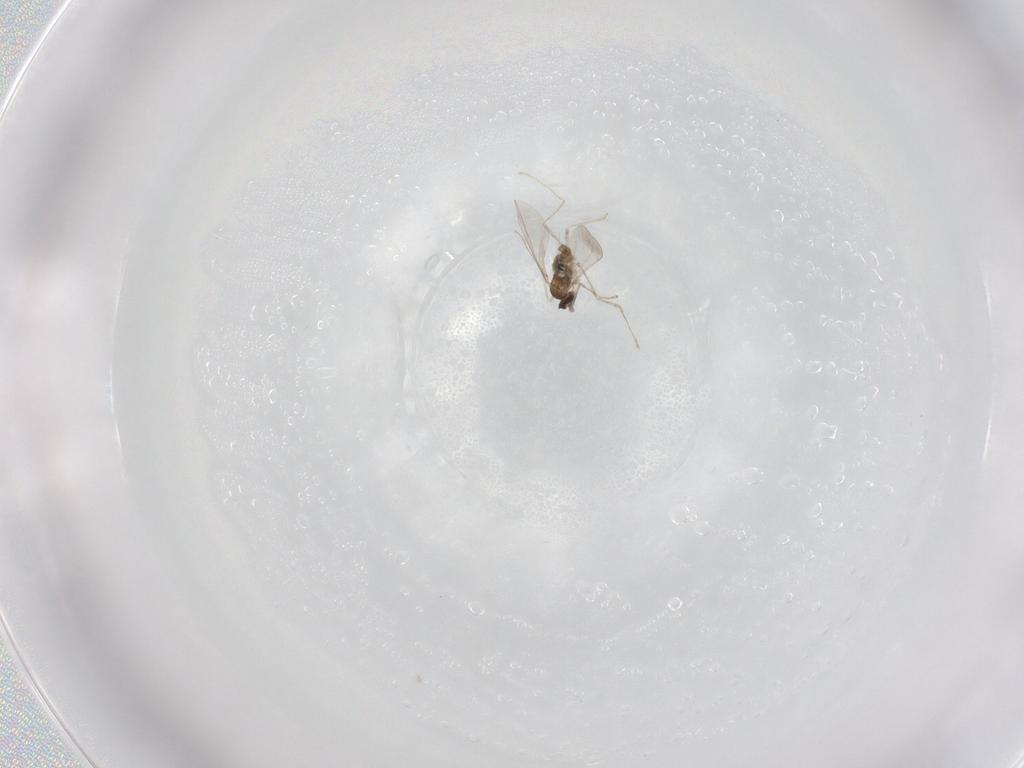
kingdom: Animalia
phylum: Arthropoda
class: Insecta
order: Diptera
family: Cecidomyiidae
